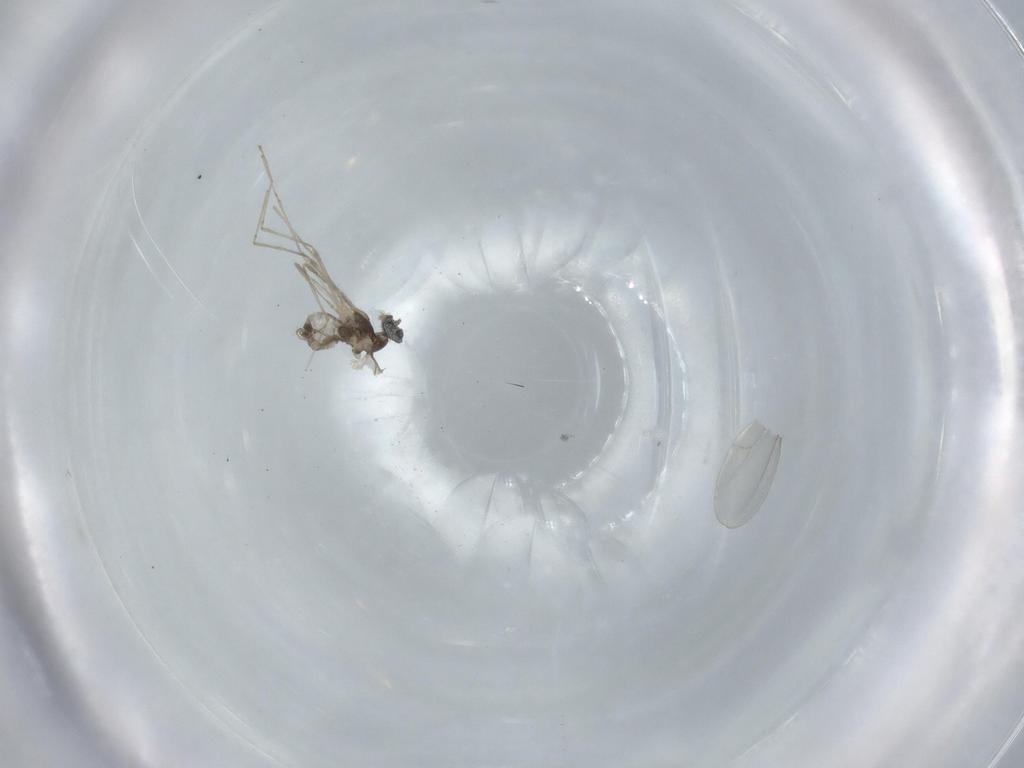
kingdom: Animalia
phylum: Arthropoda
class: Insecta
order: Diptera
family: Cecidomyiidae
